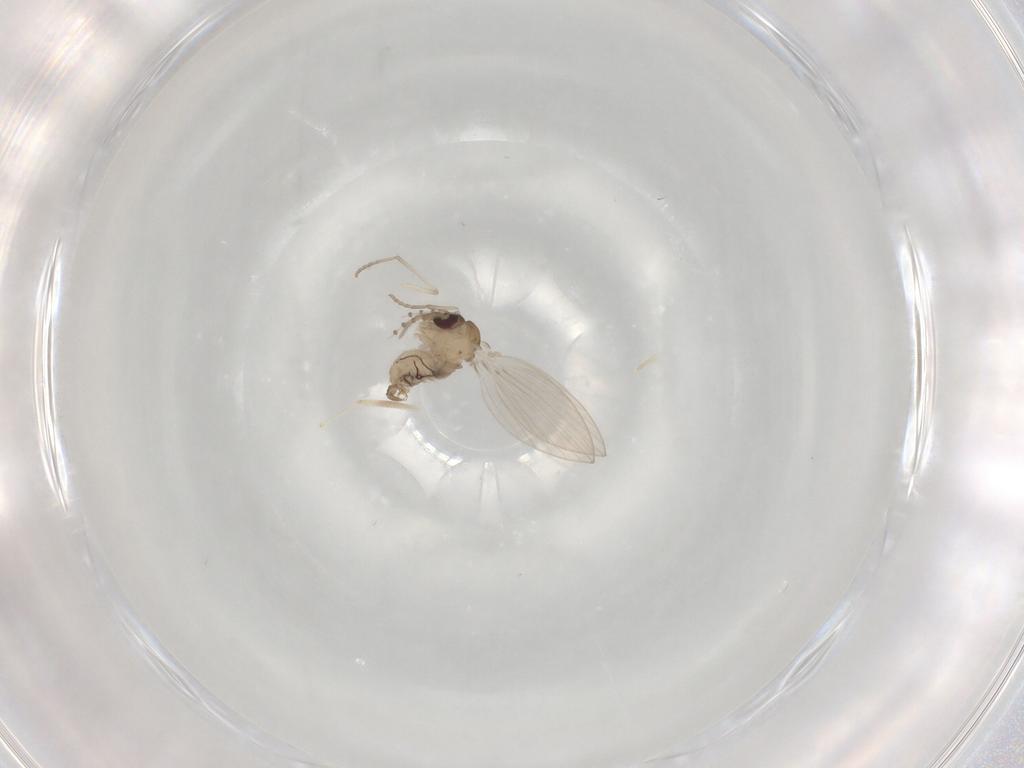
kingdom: Animalia
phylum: Arthropoda
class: Insecta
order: Diptera
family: Psychodidae
